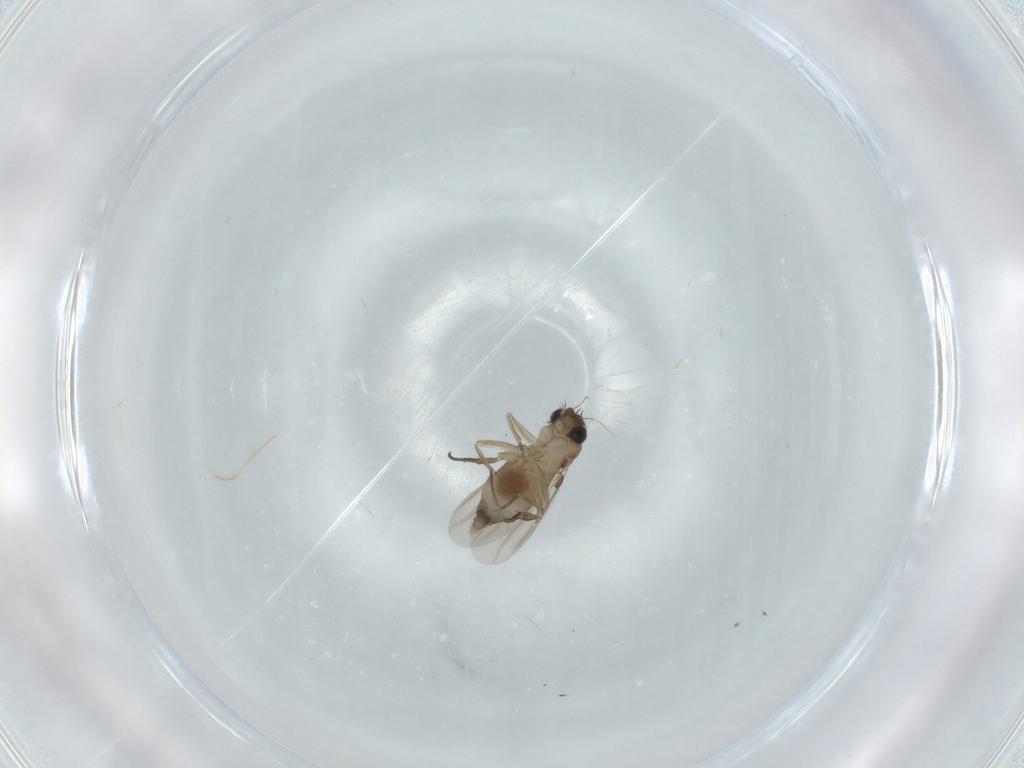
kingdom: Animalia
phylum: Arthropoda
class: Insecta
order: Diptera
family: Phoridae
